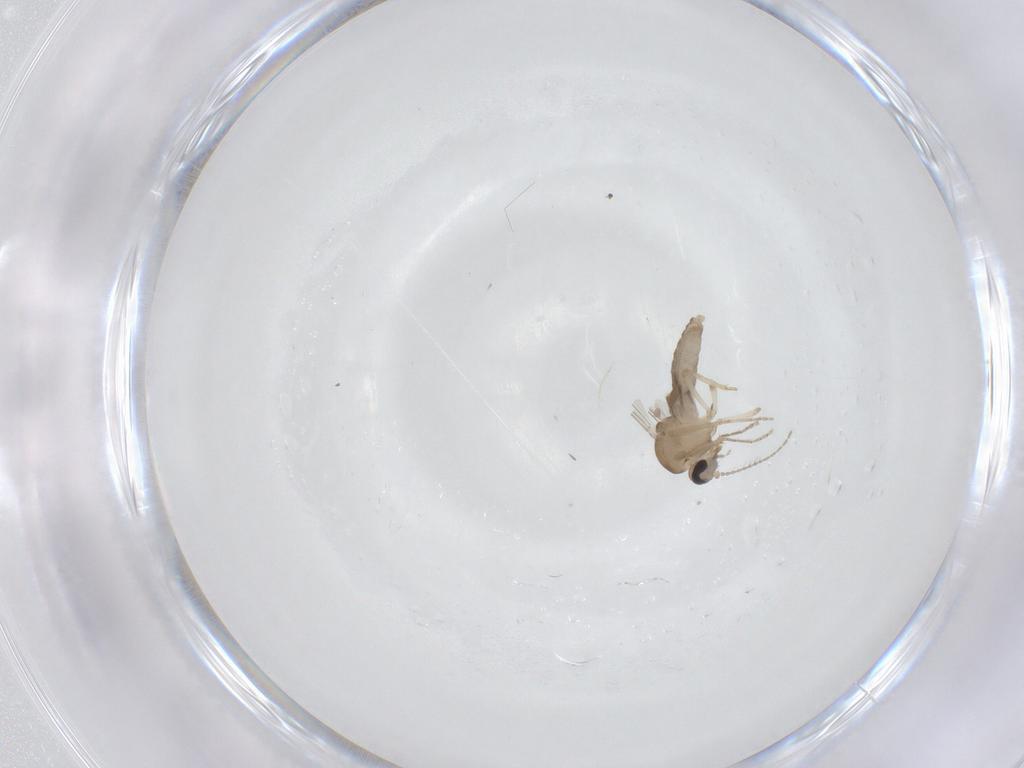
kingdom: Animalia
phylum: Arthropoda
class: Insecta
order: Diptera
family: Ceratopogonidae
